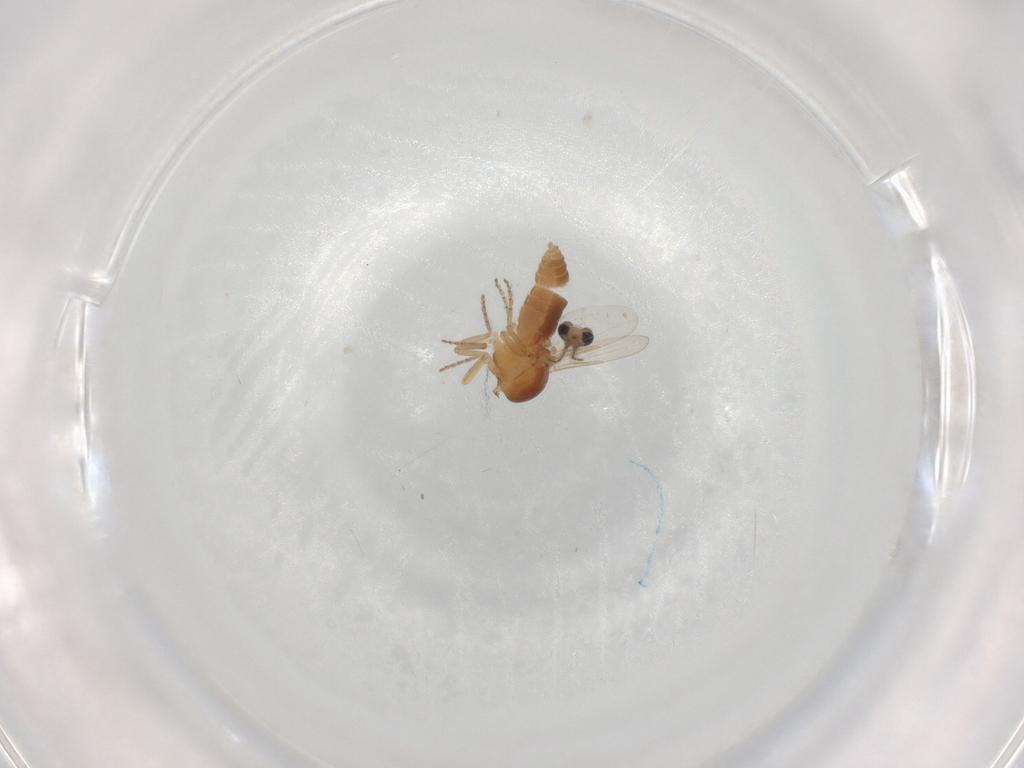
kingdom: Animalia
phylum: Arthropoda
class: Insecta
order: Diptera
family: Ceratopogonidae
